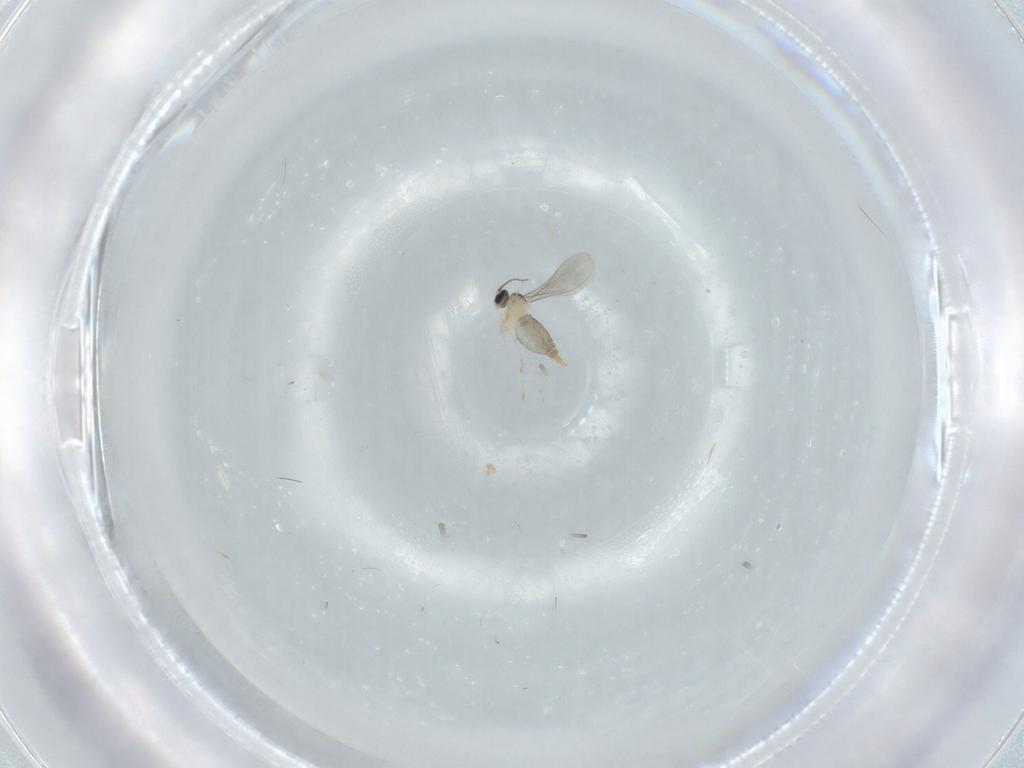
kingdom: Animalia
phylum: Arthropoda
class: Insecta
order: Diptera
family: Cecidomyiidae
